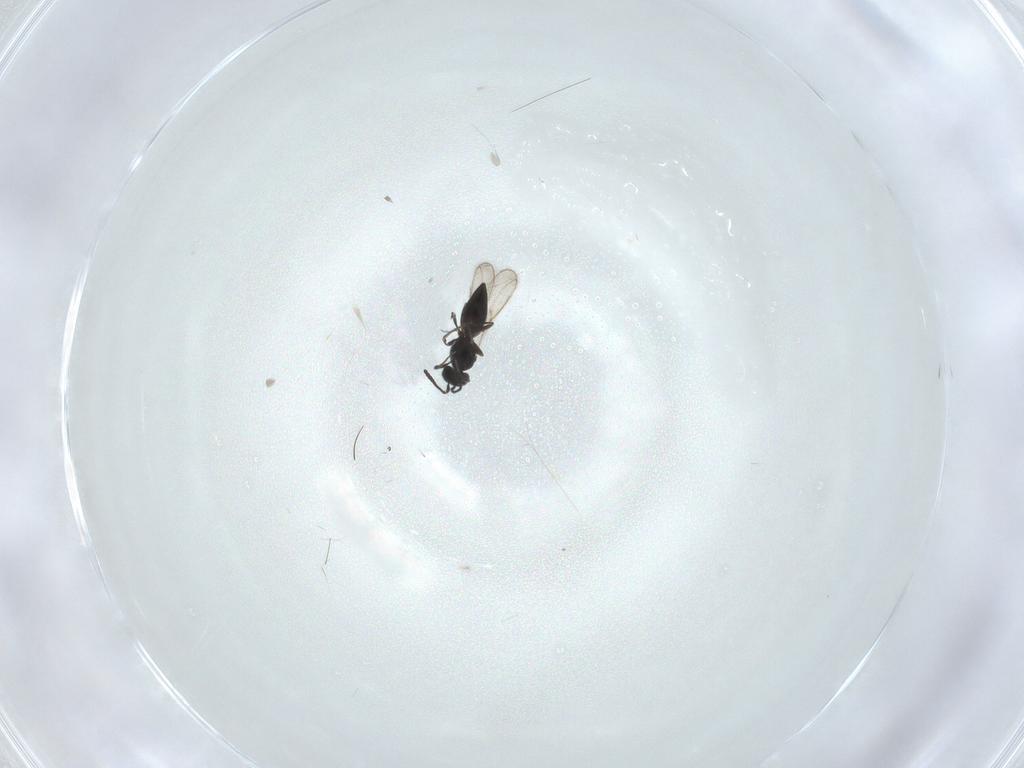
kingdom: Animalia
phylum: Arthropoda
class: Insecta
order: Hymenoptera
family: Scelionidae
